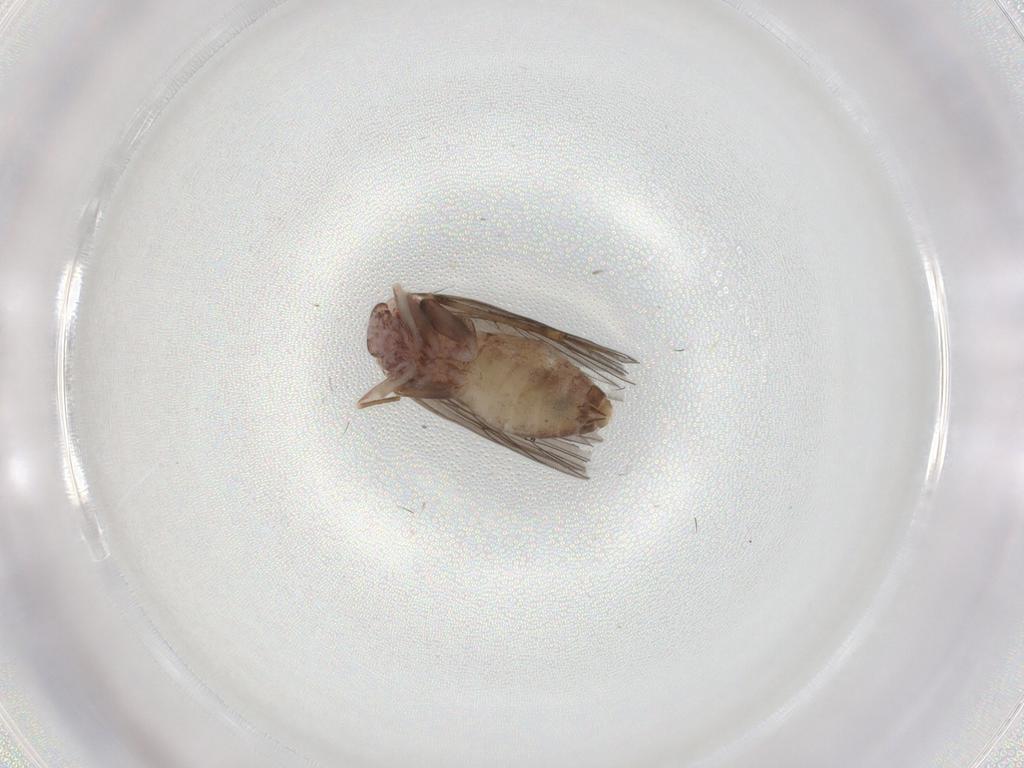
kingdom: Animalia
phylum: Arthropoda
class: Insecta
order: Psocodea
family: Lepidopsocidae
